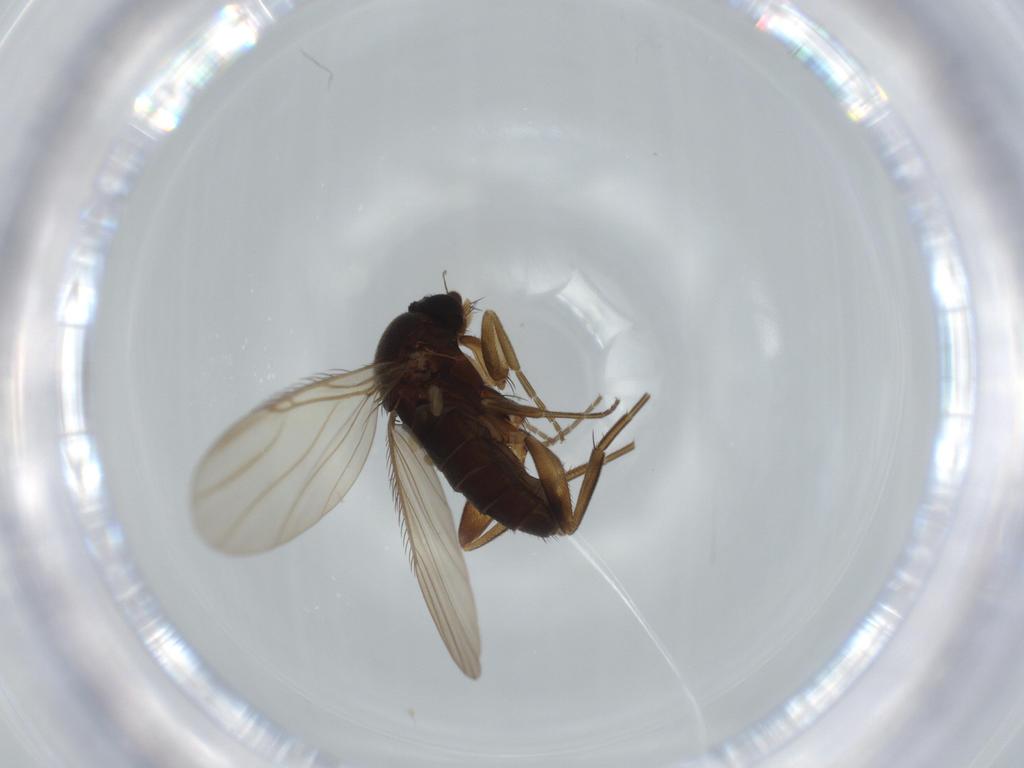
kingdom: Animalia
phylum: Arthropoda
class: Insecta
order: Diptera
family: Phoridae
